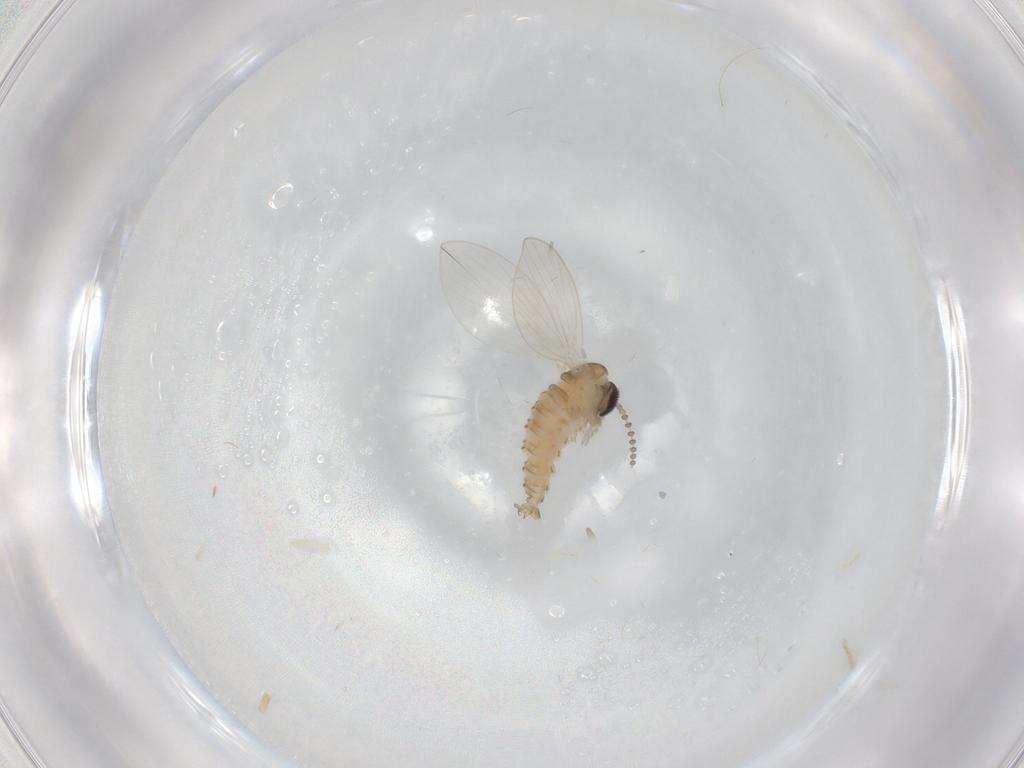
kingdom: Animalia
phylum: Arthropoda
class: Insecta
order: Diptera
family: Psychodidae
